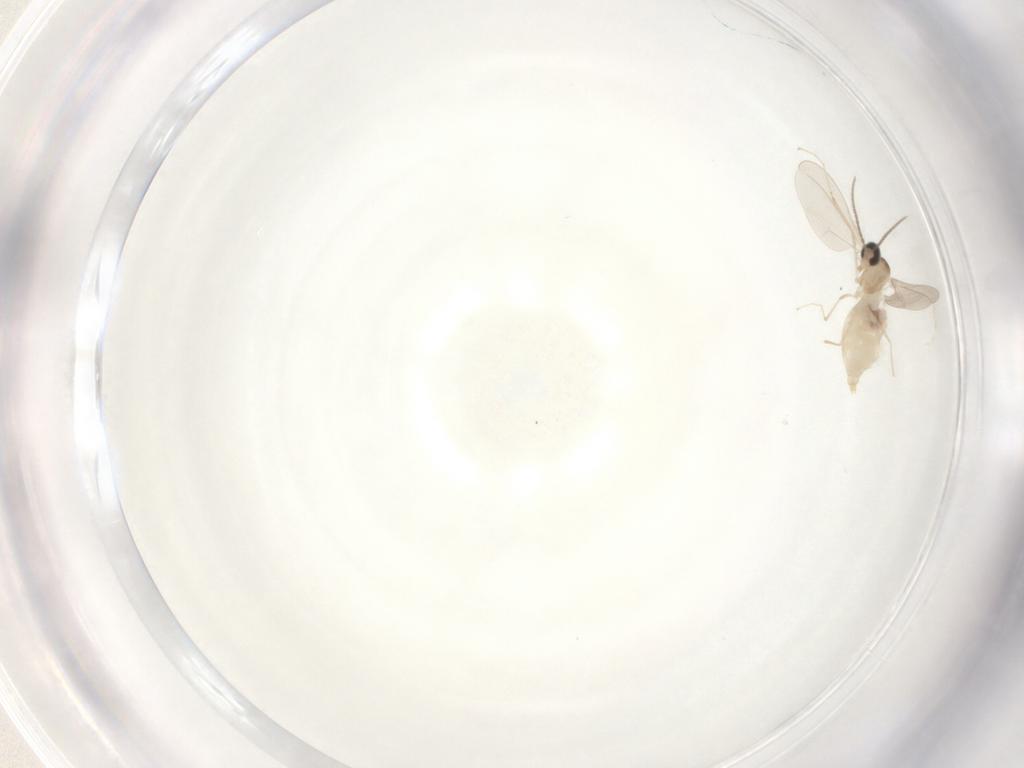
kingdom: Animalia
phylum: Arthropoda
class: Insecta
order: Diptera
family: Cecidomyiidae
